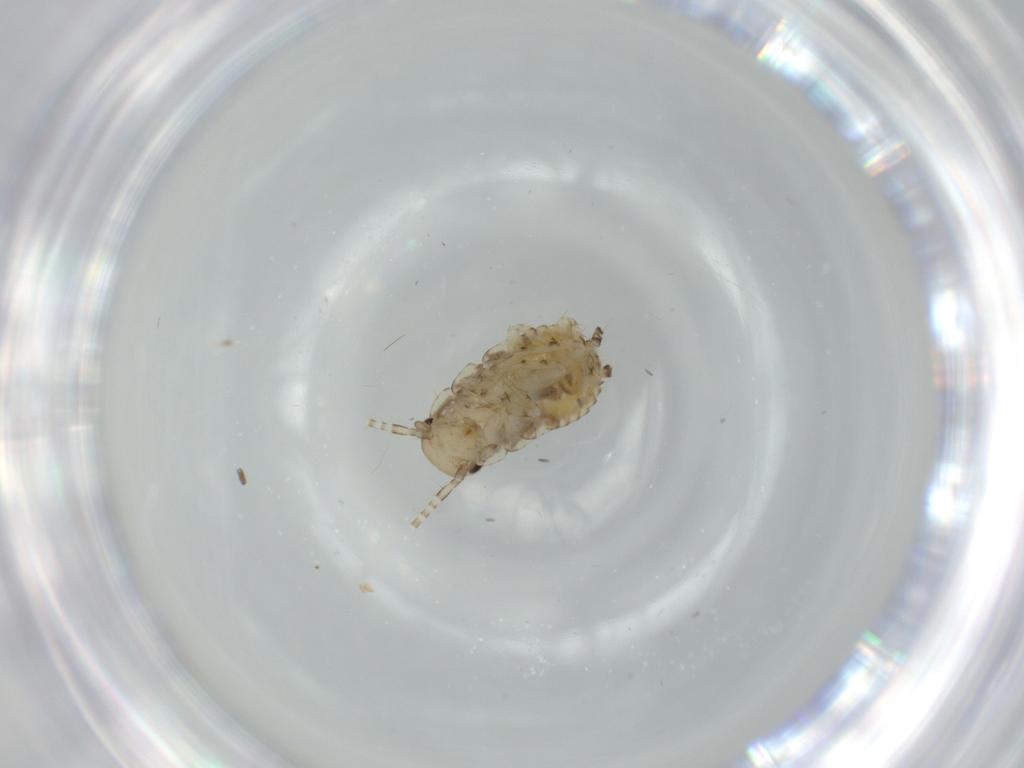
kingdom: Animalia
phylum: Arthropoda
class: Insecta
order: Blattodea
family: Ectobiidae
